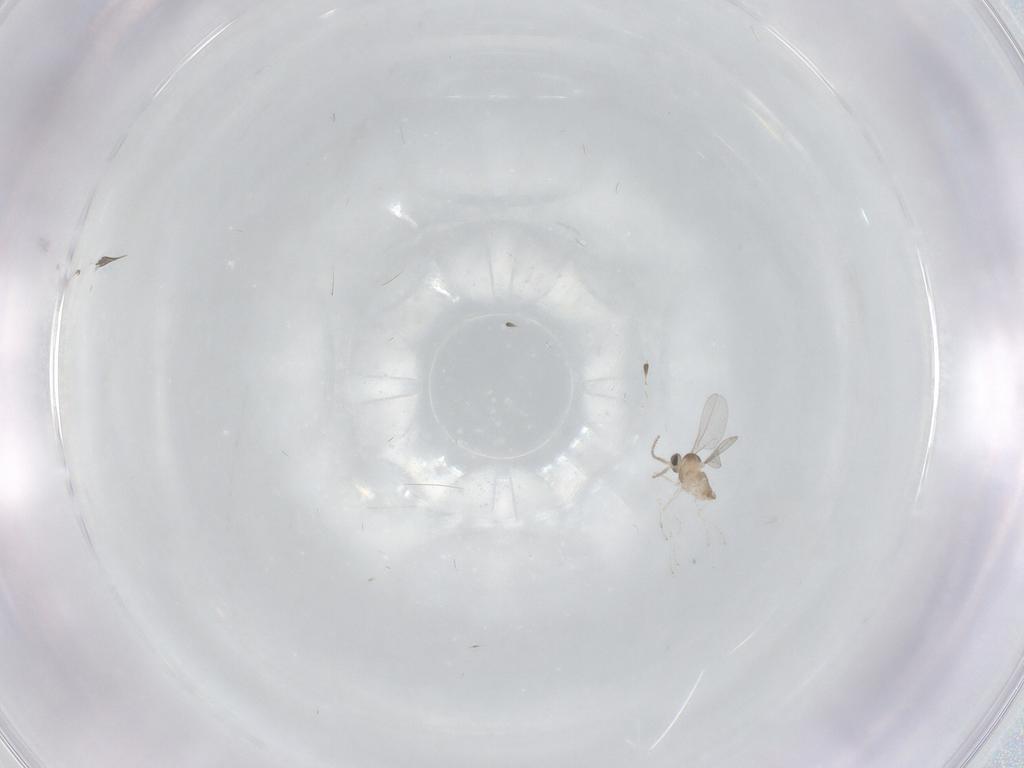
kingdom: Animalia
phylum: Arthropoda
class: Insecta
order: Diptera
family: Cecidomyiidae
